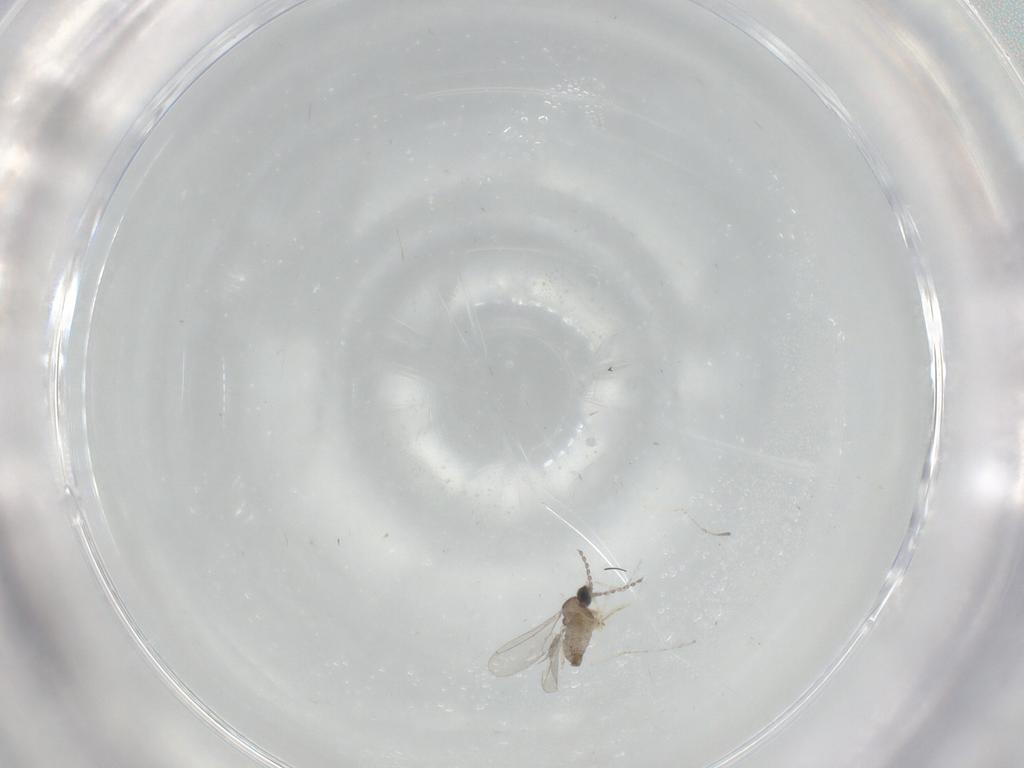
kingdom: Animalia
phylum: Arthropoda
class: Insecta
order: Diptera
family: Cecidomyiidae
